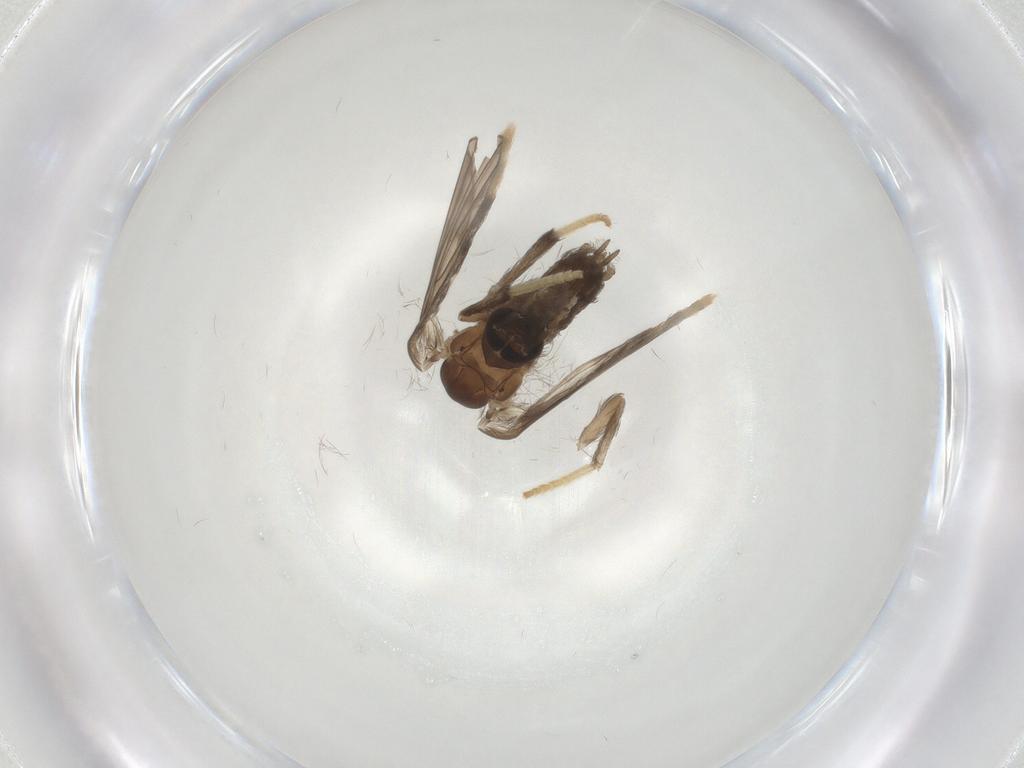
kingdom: Animalia
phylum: Arthropoda
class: Insecta
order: Diptera
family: Psychodidae
